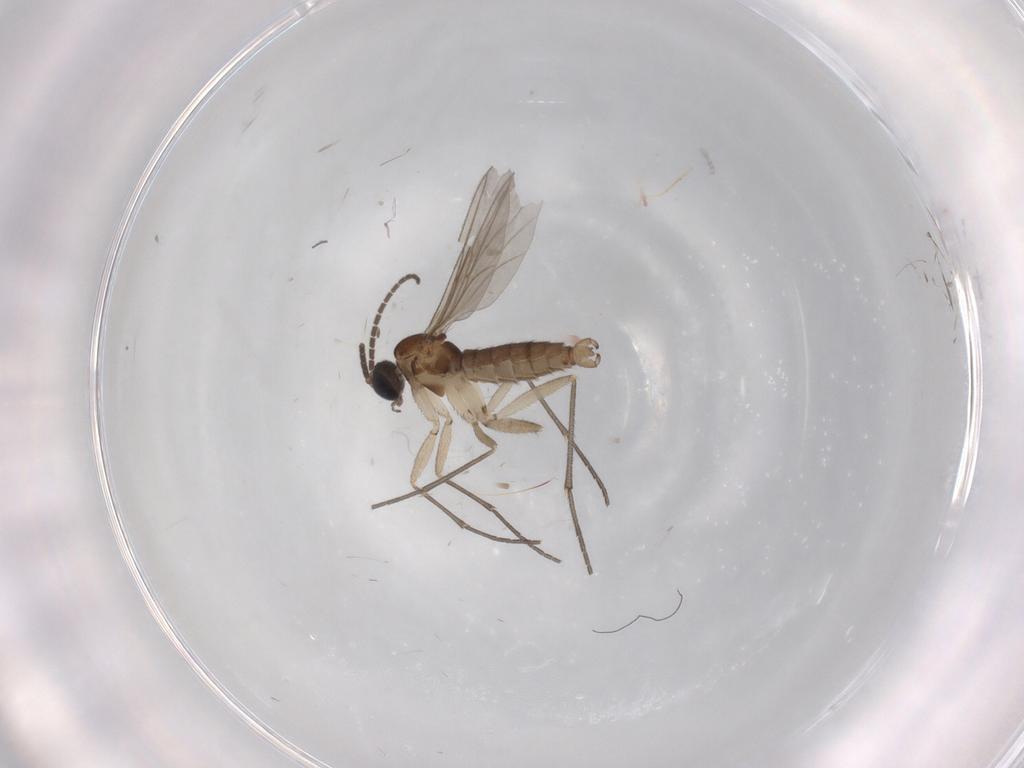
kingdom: Animalia
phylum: Arthropoda
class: Insecta
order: Diptera
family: Sciaridae
